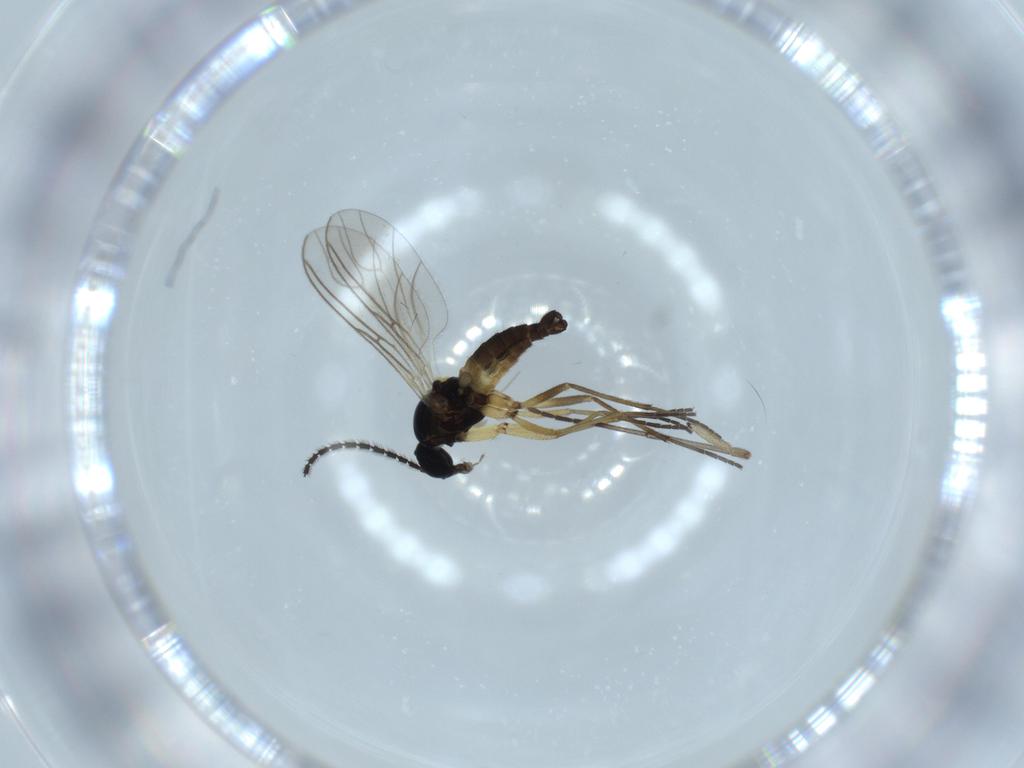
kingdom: Animalia
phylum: Arthropoda
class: Insecta
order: Diptera
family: Sciaridae
